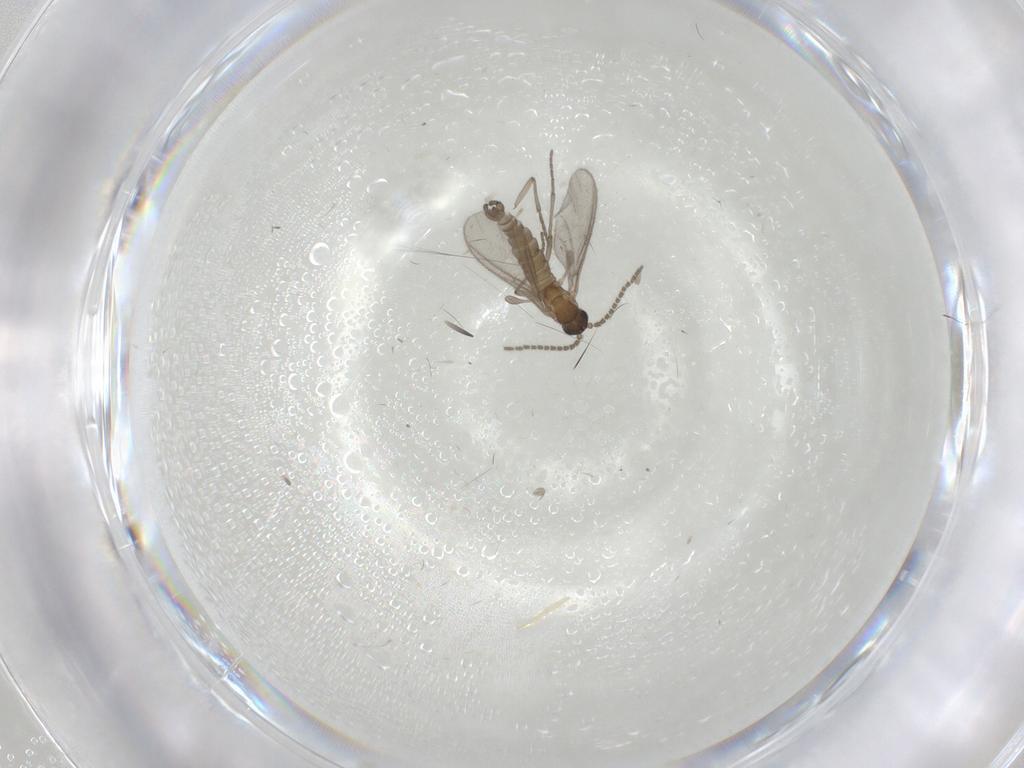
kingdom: Animalia
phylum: Arthropoda
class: Insecta
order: Diptera
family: Sciaridae
